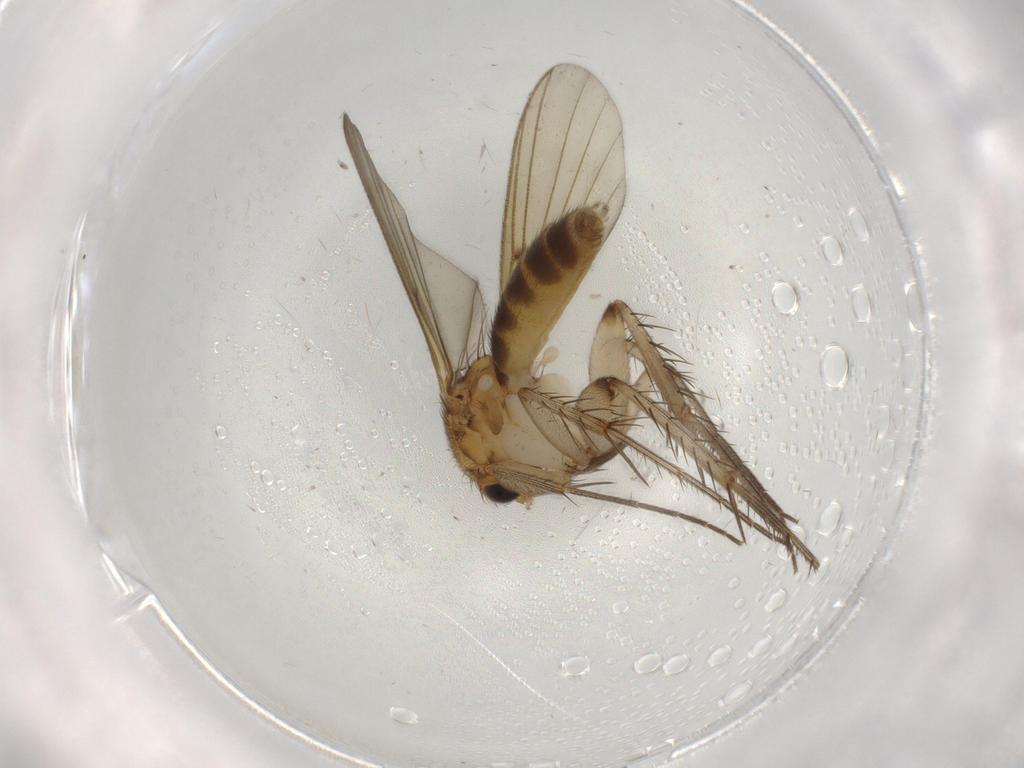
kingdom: Animalia
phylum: Arthropoda
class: Insecta
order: Diptera
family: Mycetophilidae
